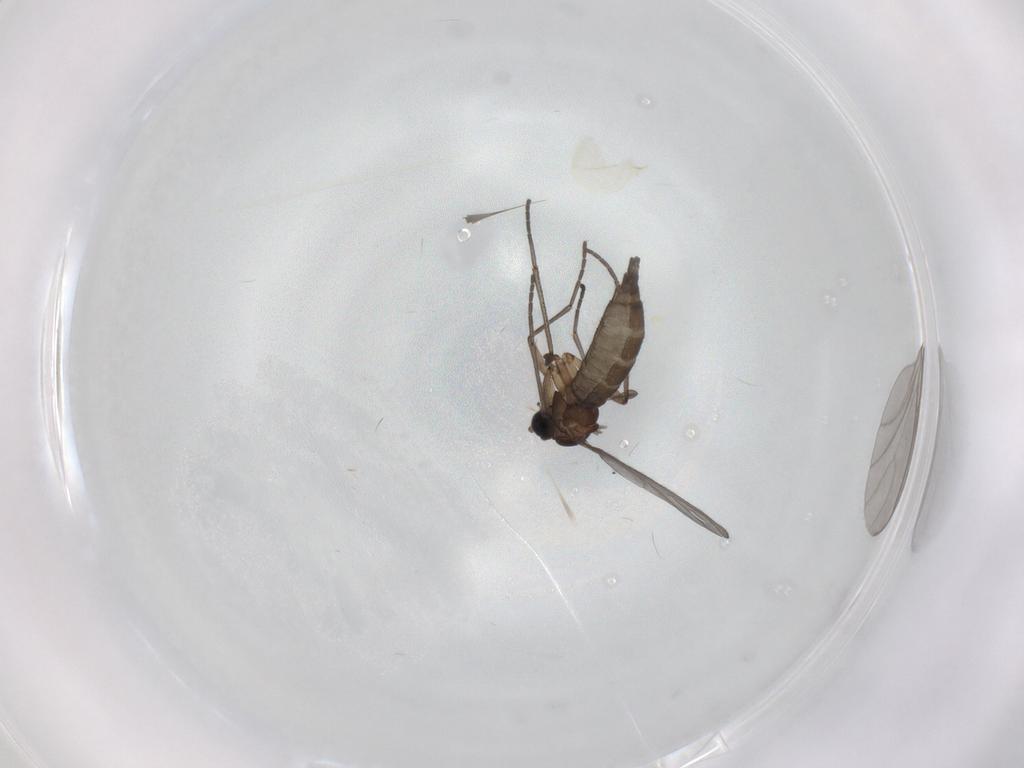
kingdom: Animalia
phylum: Arthropoda
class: Insecta
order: Diptera
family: Sciaridae
